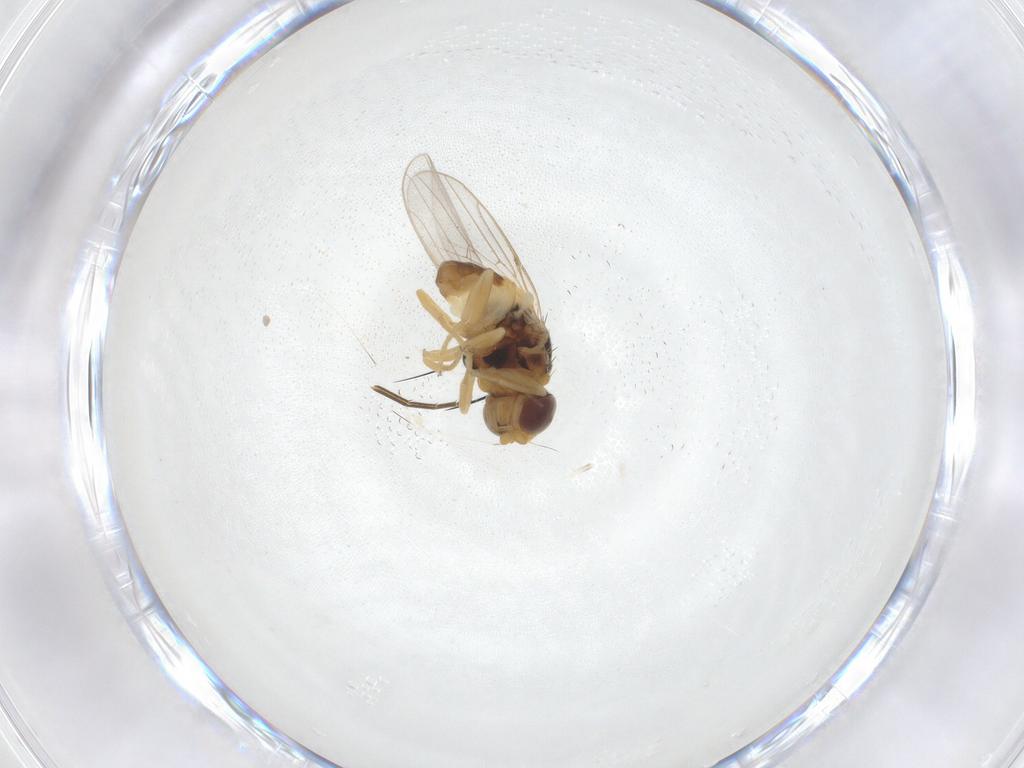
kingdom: Animalia
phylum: Arthropoda
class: Insecta
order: Diptera
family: Chloropidae
